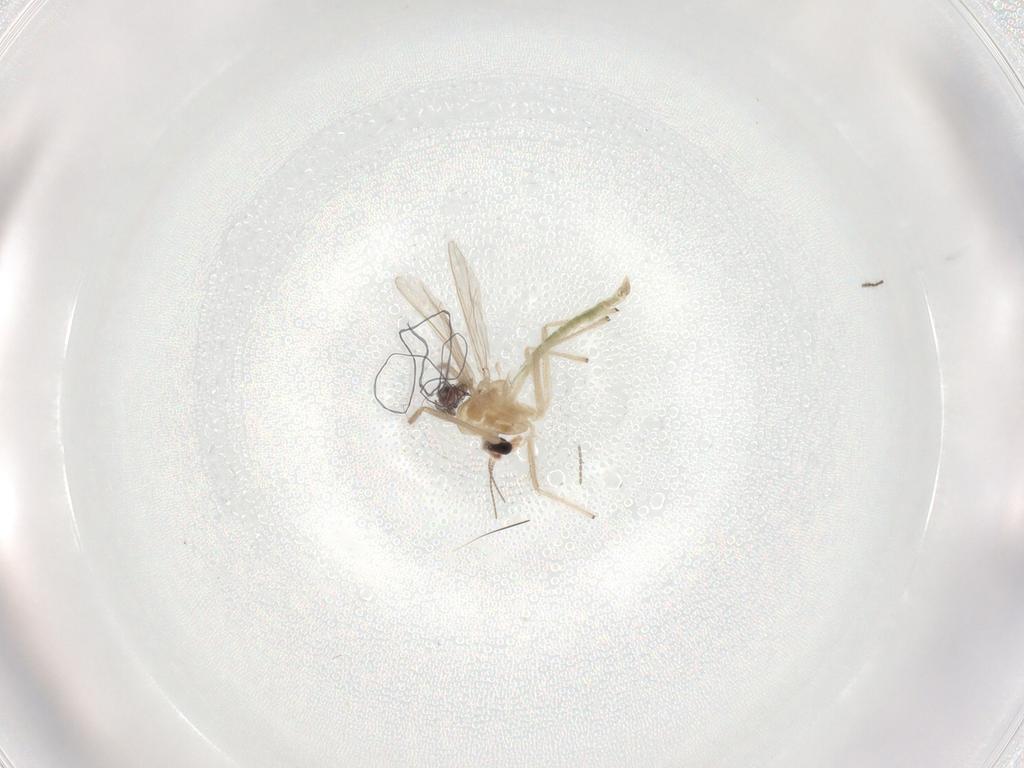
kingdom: Animalia
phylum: Arthropoda
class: Insecta
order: Diptera
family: Chironomidae
